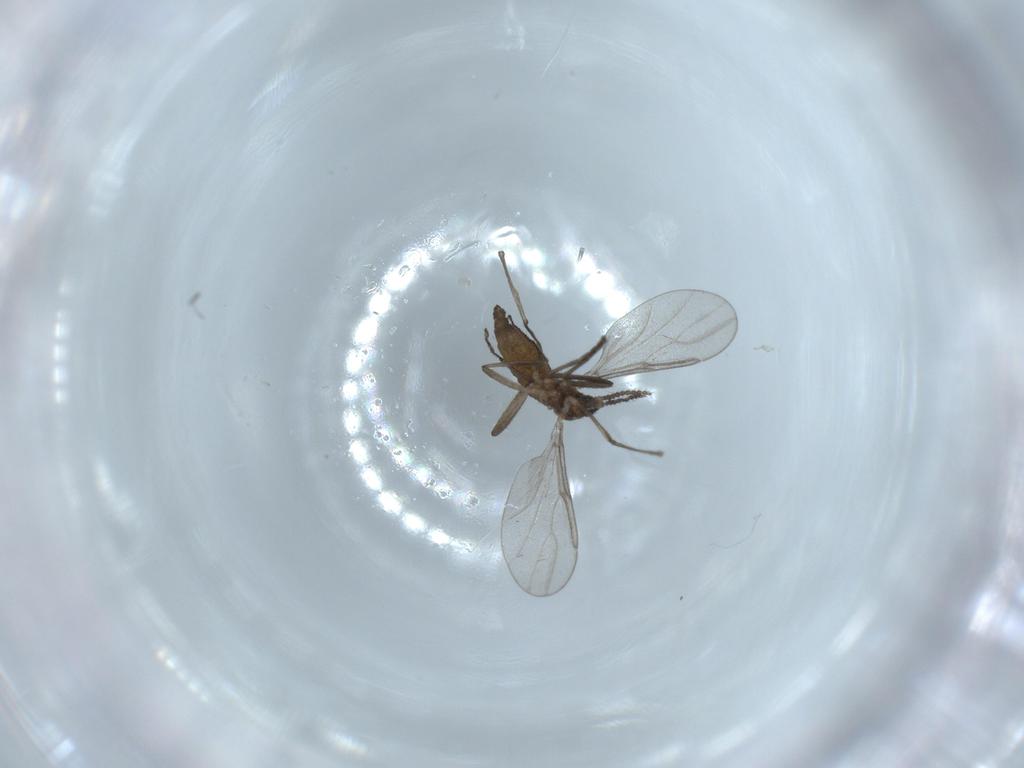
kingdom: Animalia
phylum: Arthropoda
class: Insecta
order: Diptera
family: Cecidomyiidae
